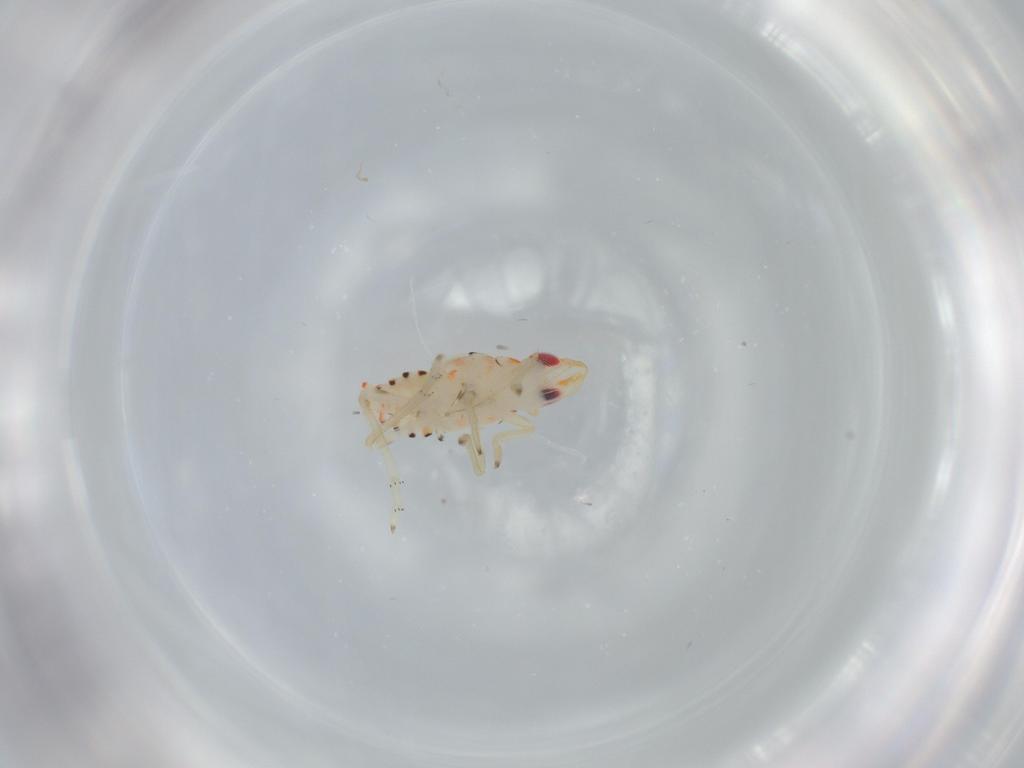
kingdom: Animalia
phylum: Arthropoda
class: Insecta
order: Hemiptera
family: Tropiduchidae
